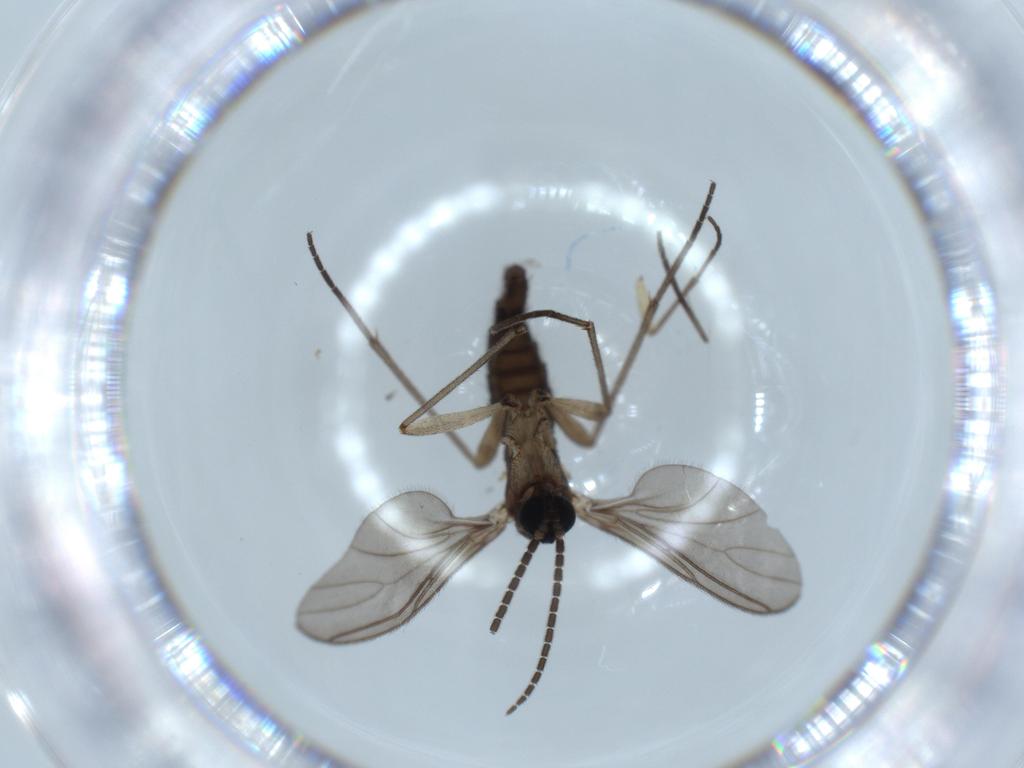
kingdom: Animalia
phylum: Arthropoda
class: Insecta
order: Diptera
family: Sciaridae
